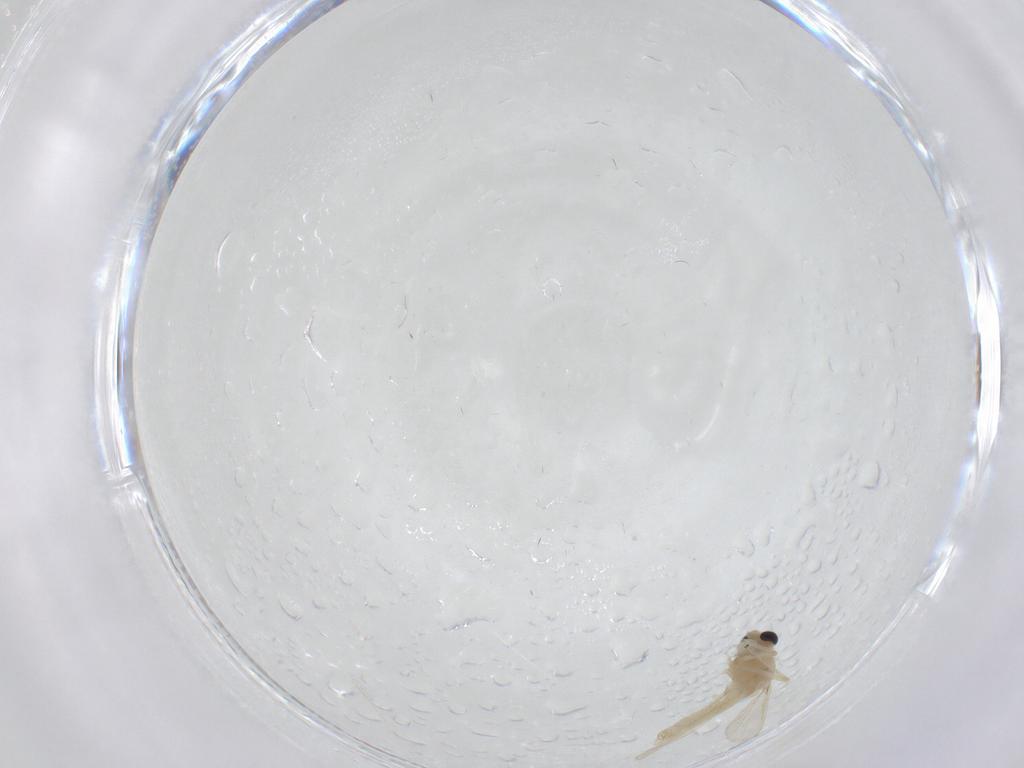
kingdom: Animalia
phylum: Arthropoda
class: Insecta
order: Diptera
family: Chironomidae
